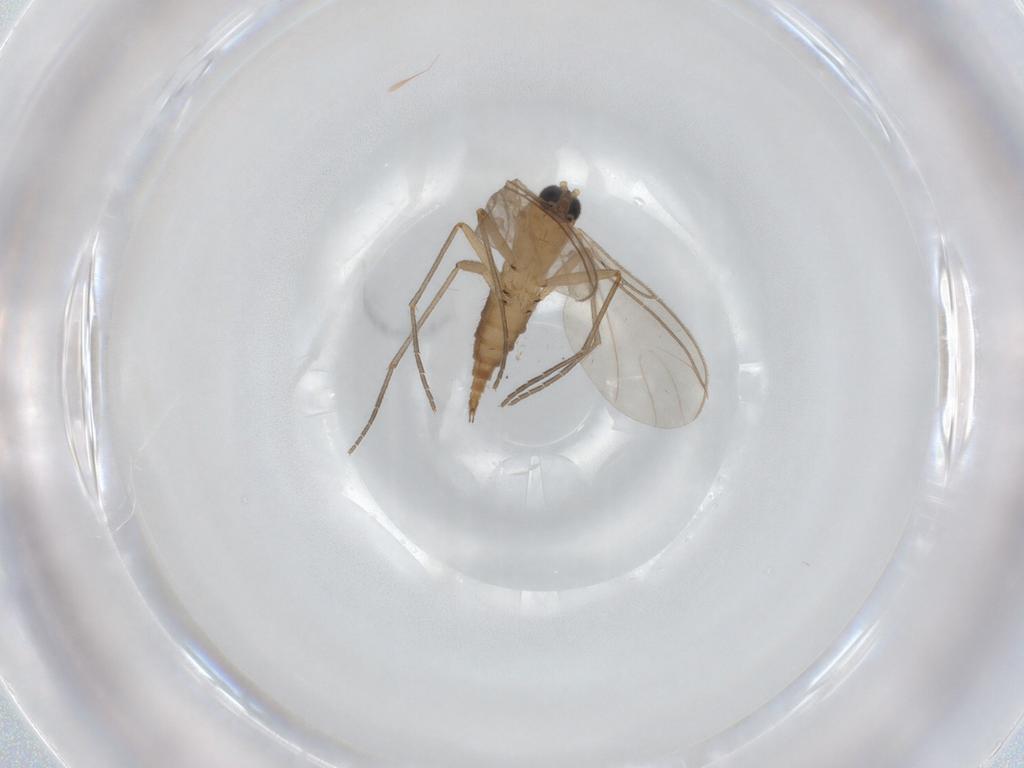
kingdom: Animalia
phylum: Arthropoda
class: Insecta
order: Diptera
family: Sciaridae
